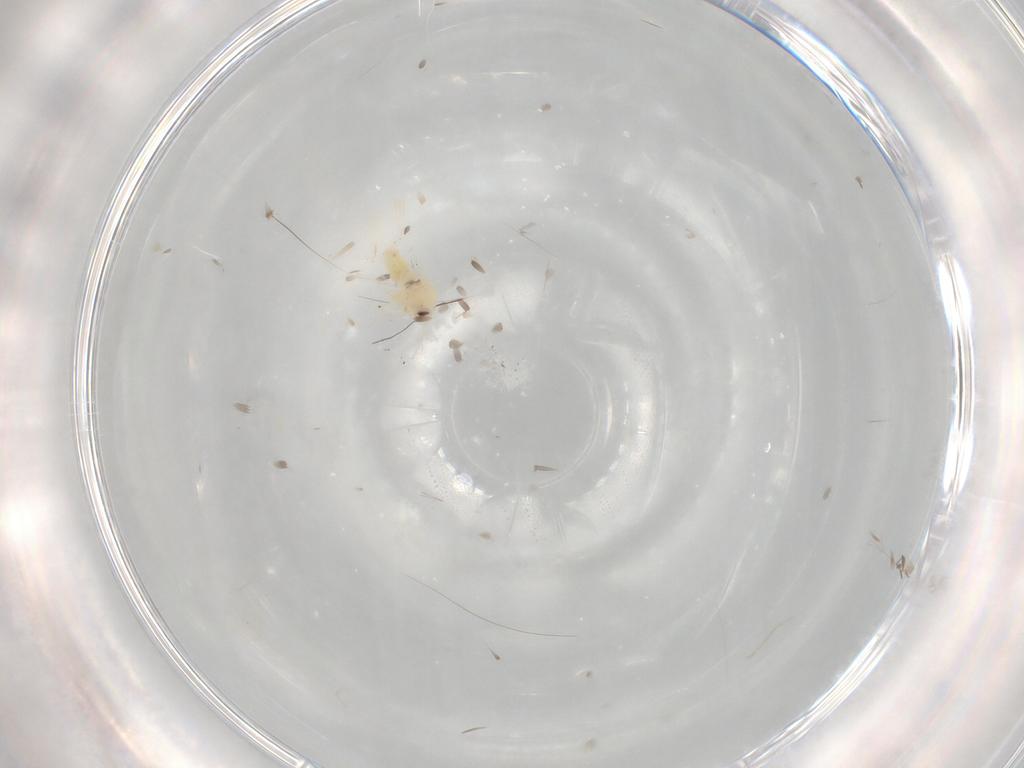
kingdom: Animalia
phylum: Arthropoda
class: Insecta
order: Hemiptera
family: Aleyrodidae
